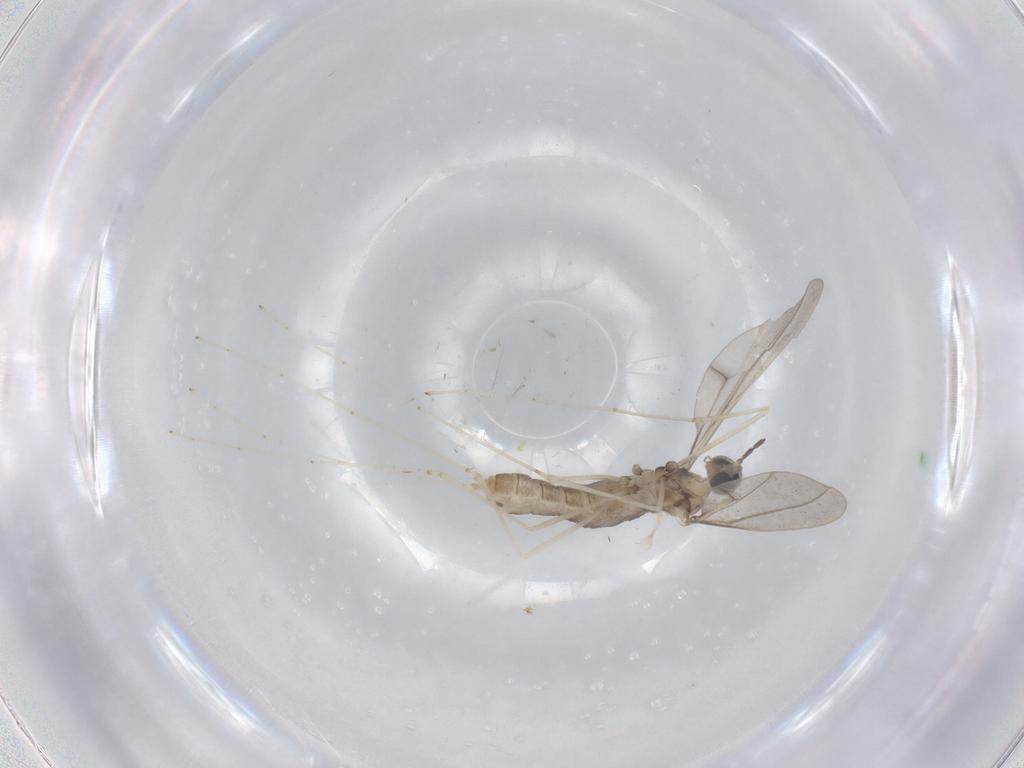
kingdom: Animalia
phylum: Arthropoda
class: Insecta
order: Diptera
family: Cecidomyiidae
